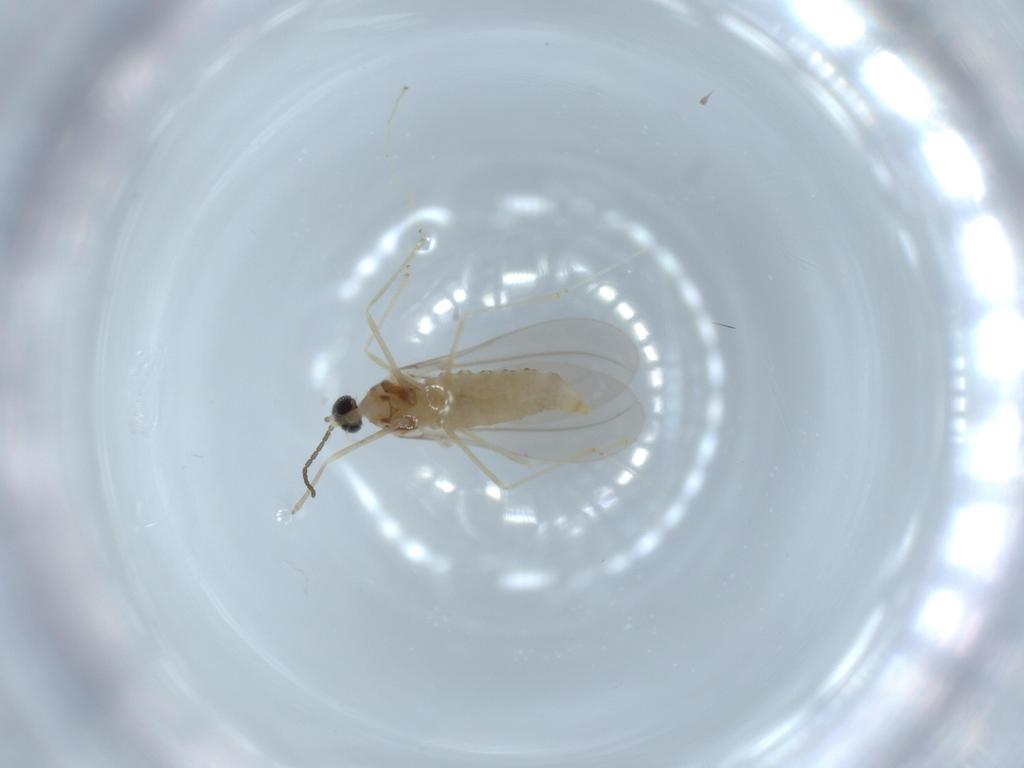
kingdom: Animalia
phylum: Arthropoda
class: Insecta
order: Diptera
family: Cecidomyiidae
